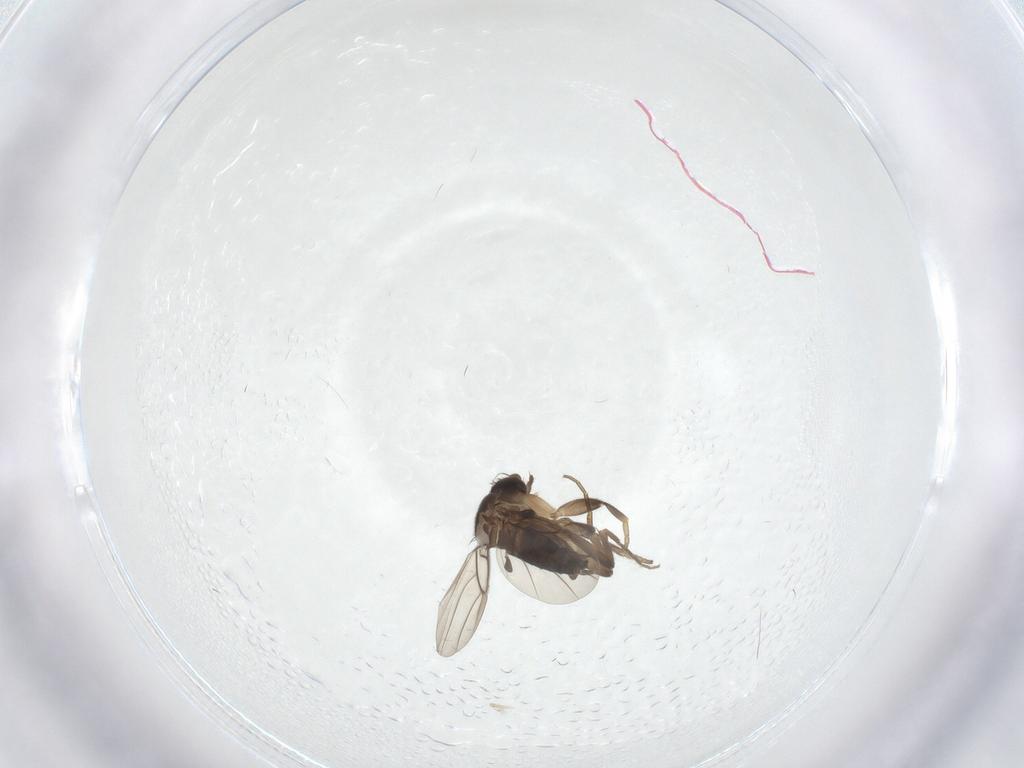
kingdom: Animalia
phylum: Arthropoda
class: Insecta
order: Diptera
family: Phoridae
